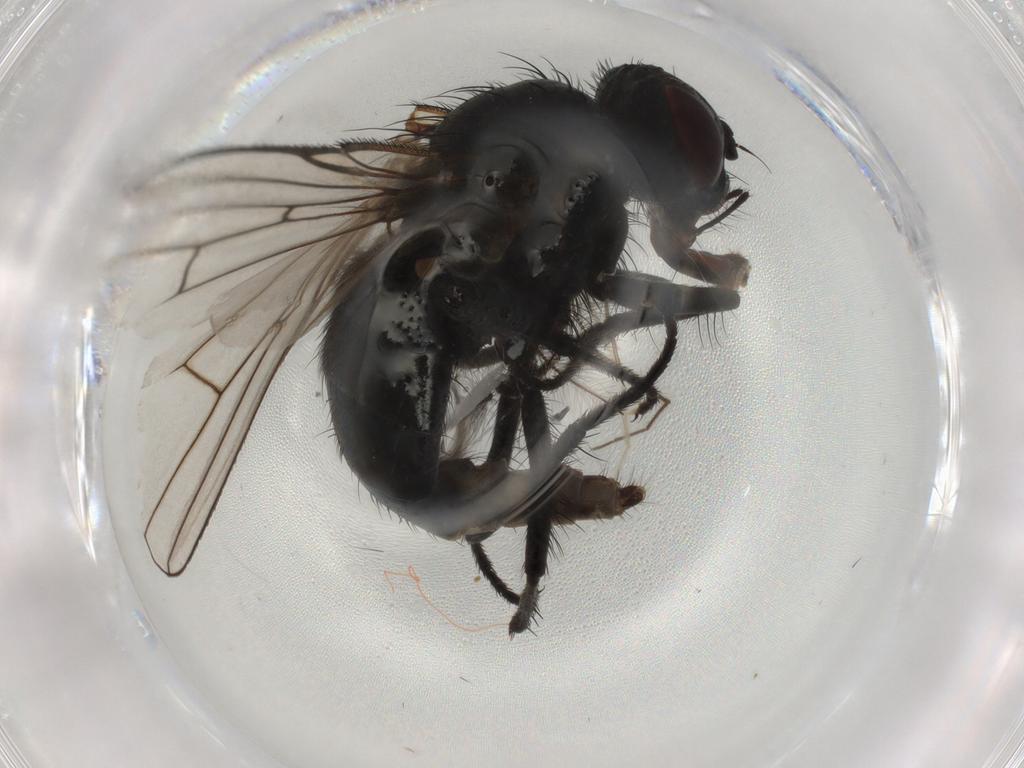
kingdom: Animalia
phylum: Arthropoda
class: Insecta
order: Diptera
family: Muscidae
